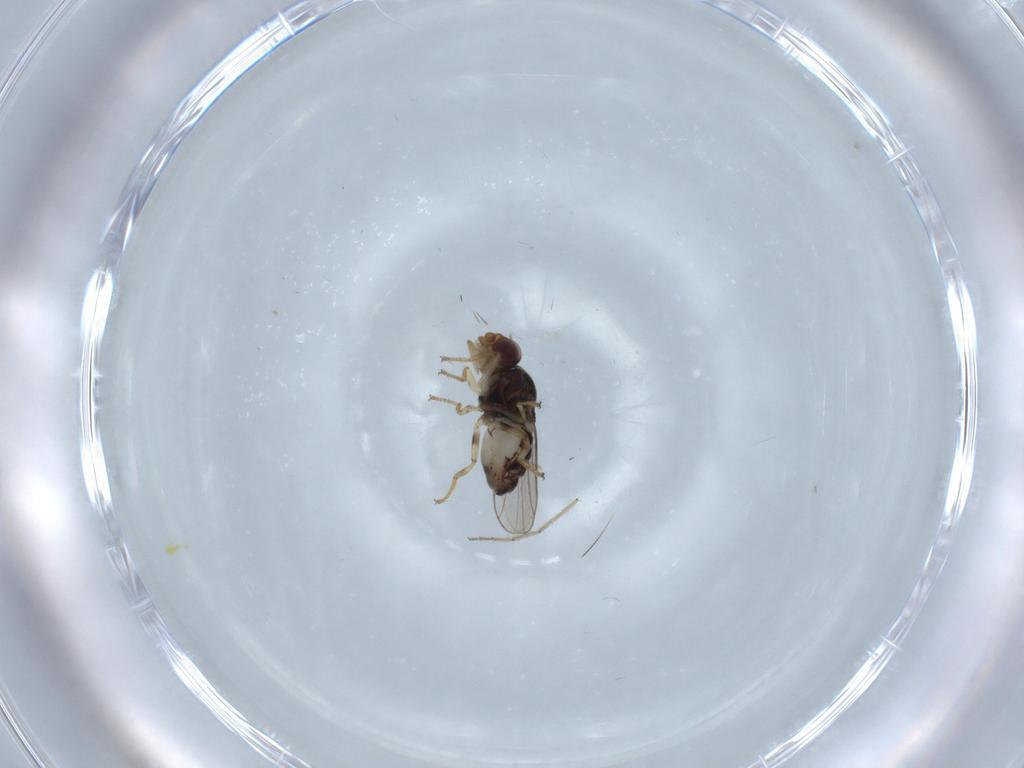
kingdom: Animalia
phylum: Arthropoda
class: Insecta
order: Diptera
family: Chloropidae
